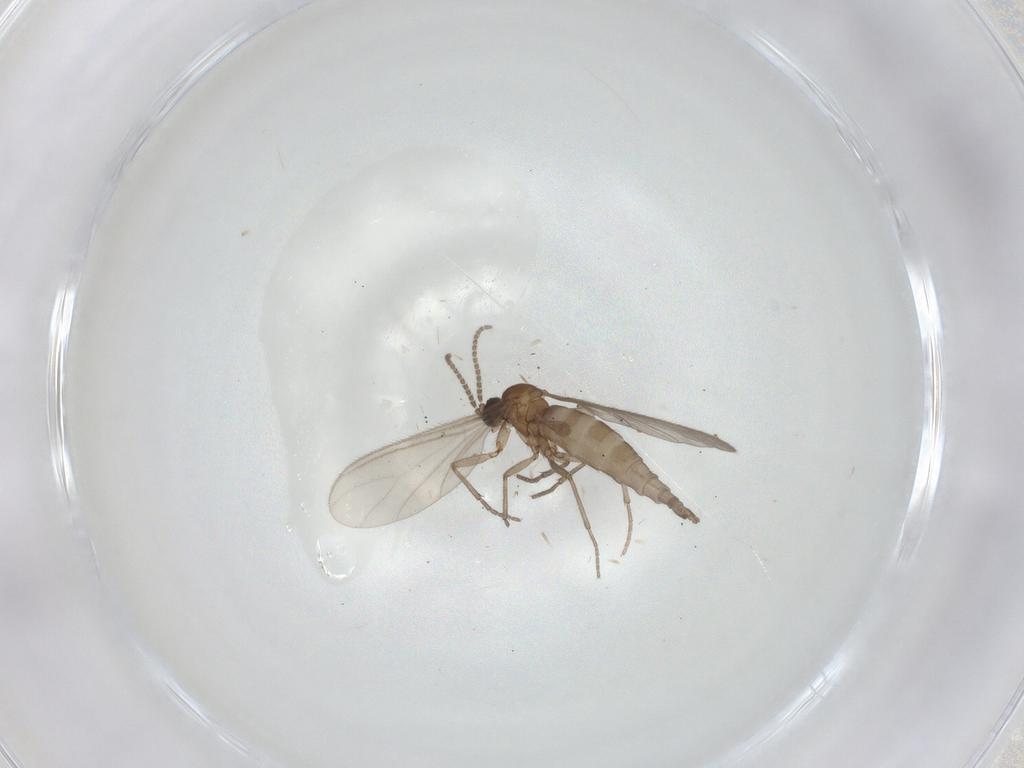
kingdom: Animalia
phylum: Arthropoda
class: Insecta
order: Diptera
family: Sciaridae
